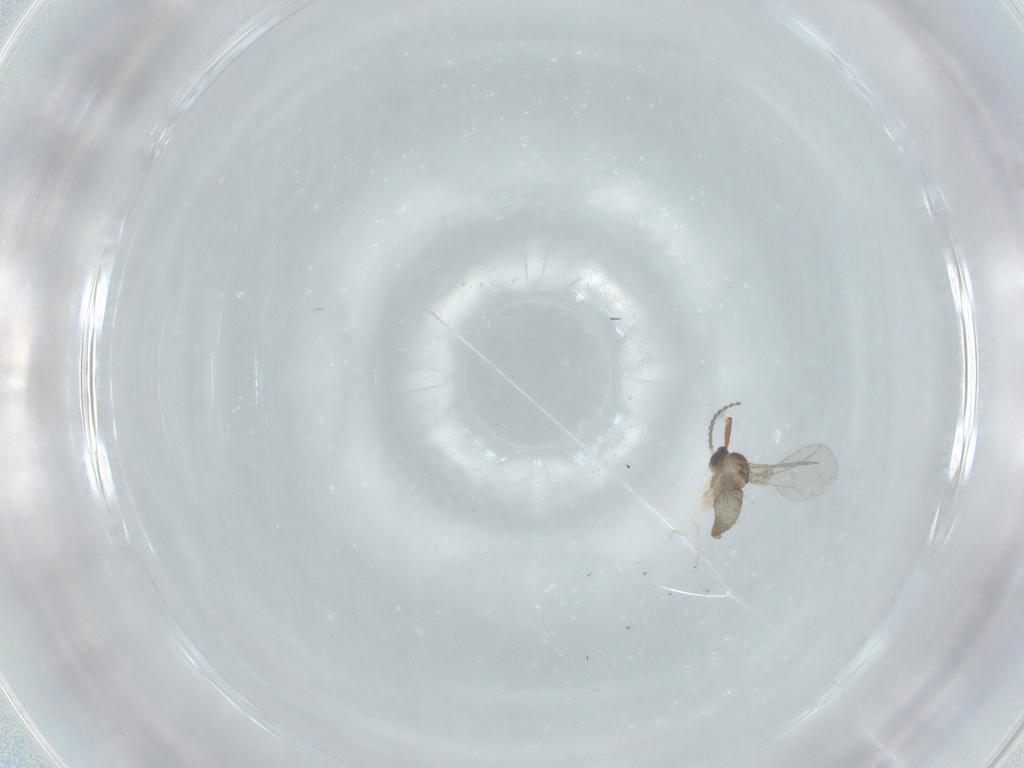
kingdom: Animalia
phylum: Arthropoda
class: Insecta
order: Diptera
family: Cecidomyiidae
